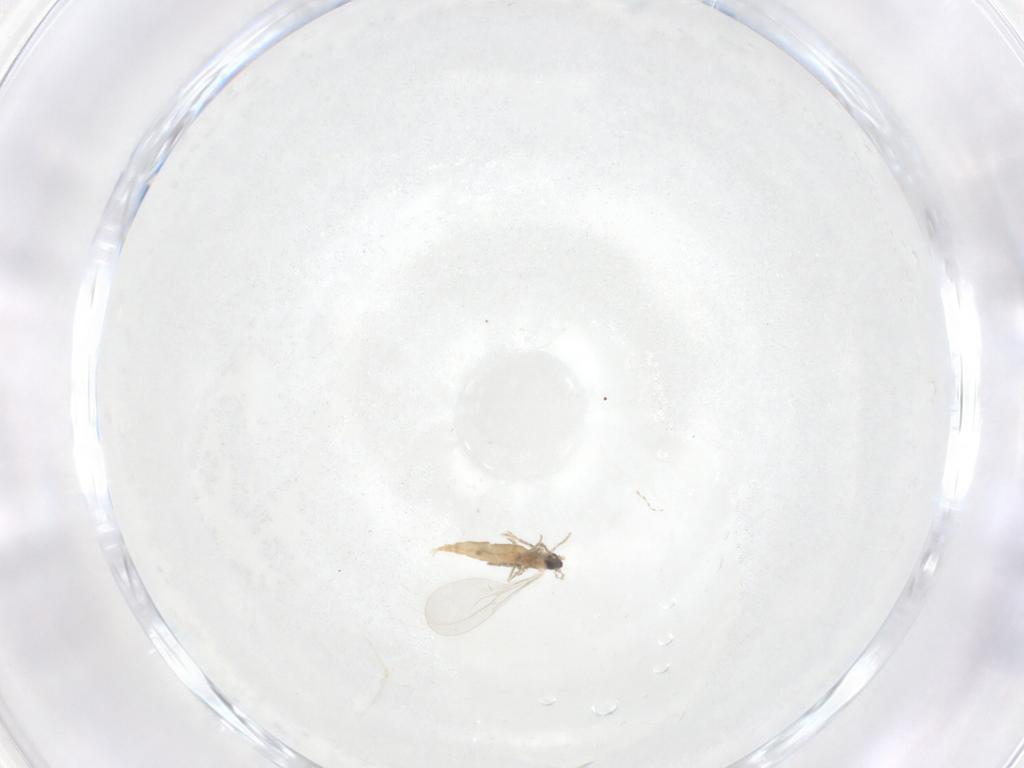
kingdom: Animalia
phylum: Arthropoda
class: Insecta
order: Diptera
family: Cecidomyiidae
